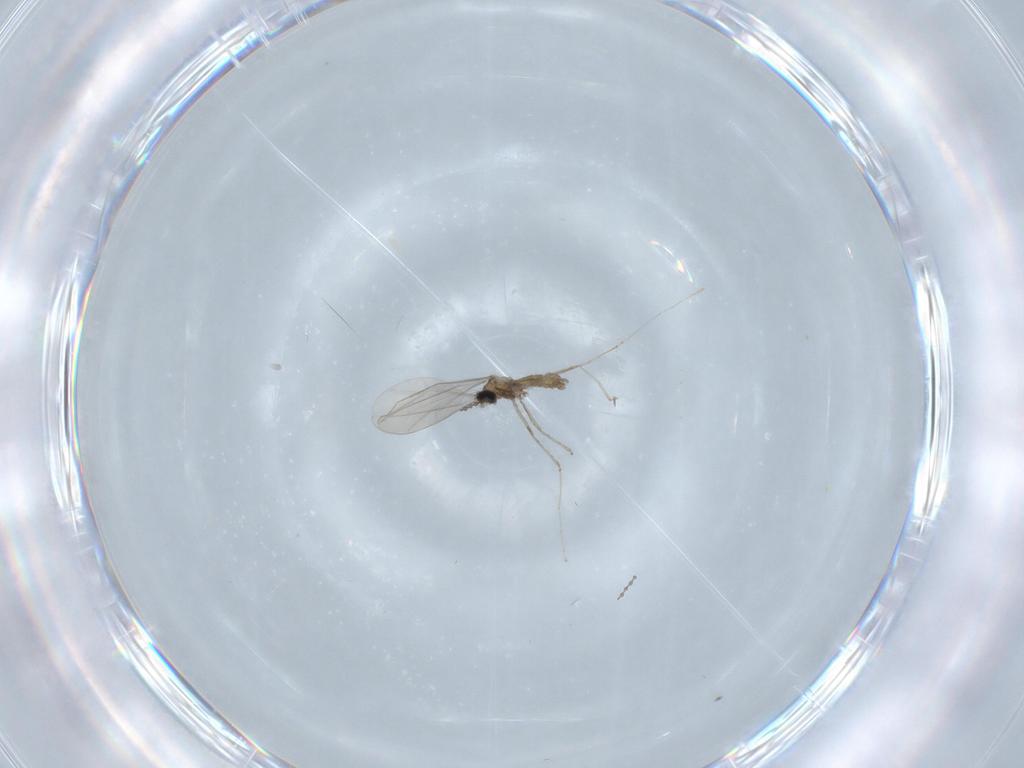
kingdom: Animalia
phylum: Arthropoda
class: Insecta
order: Diptera
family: Cecidomyiidae
